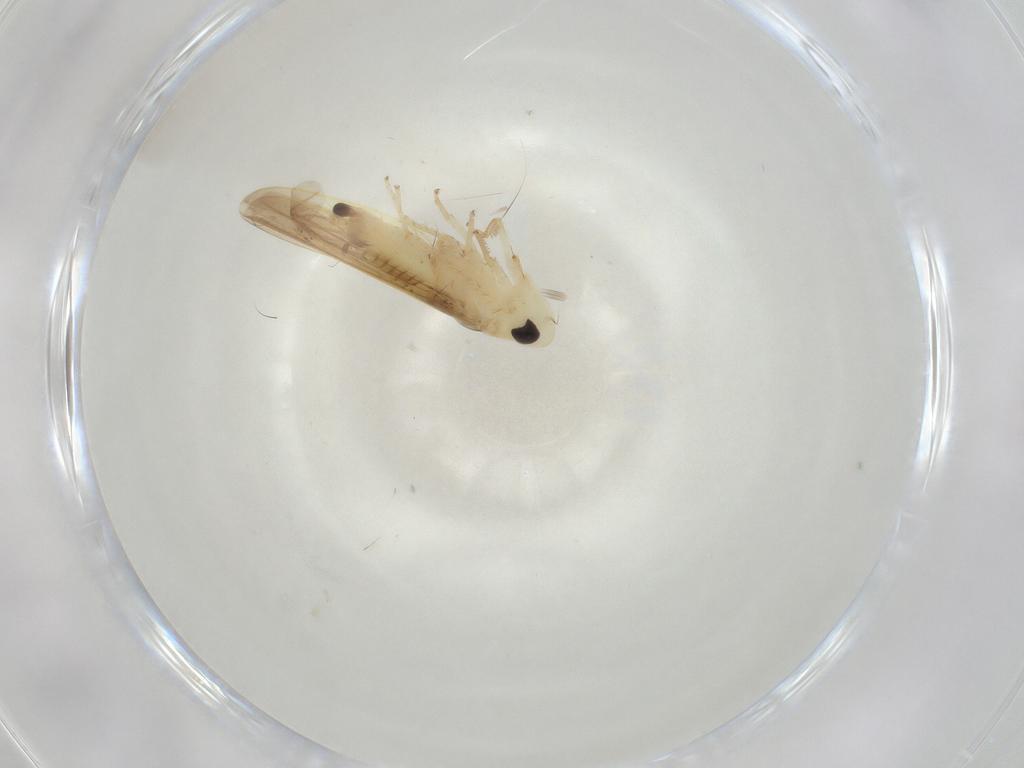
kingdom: Animalia
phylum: Arthropoda
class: Insecta
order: Hemiptera
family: Cicadellidae
